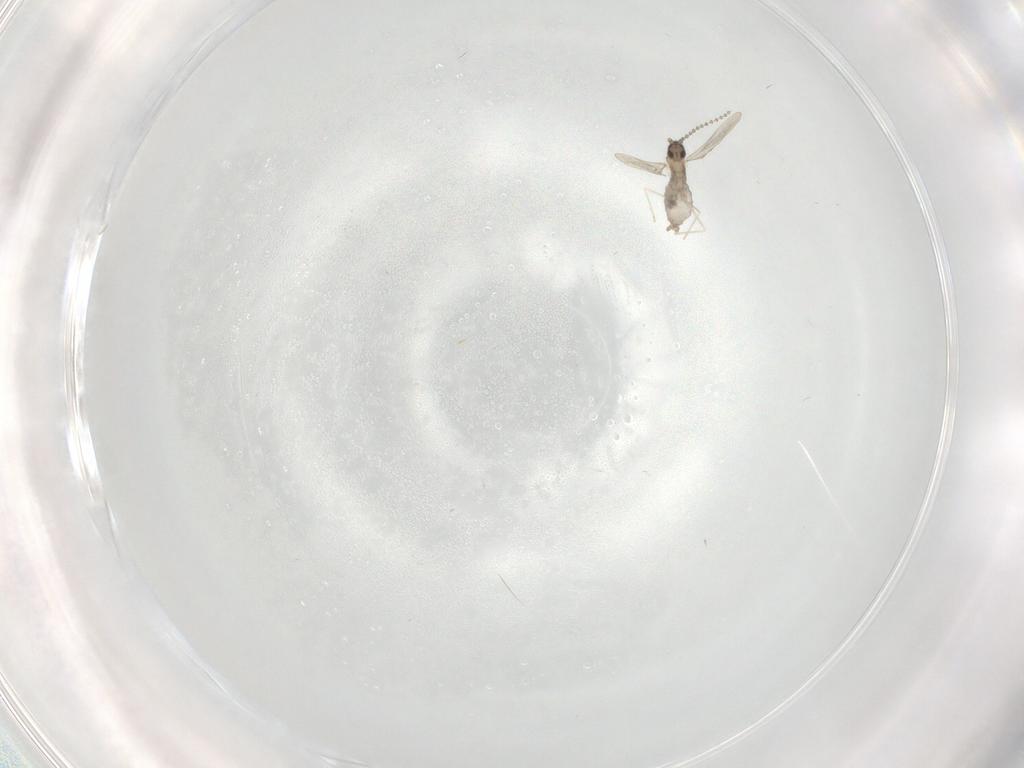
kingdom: Animalia
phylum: Arthropoda
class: Insecta
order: Diptera
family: Cecidomyiidae
